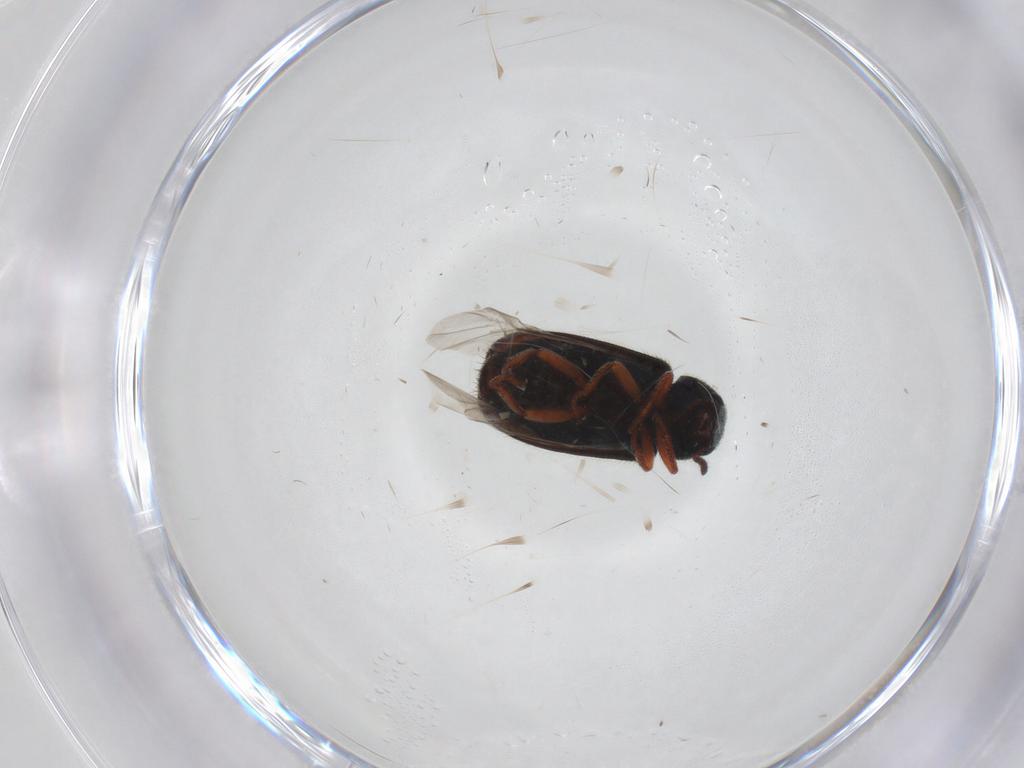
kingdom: Animalia
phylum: Arthropoda
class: Insecta
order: Coleoptera
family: Melyridae
